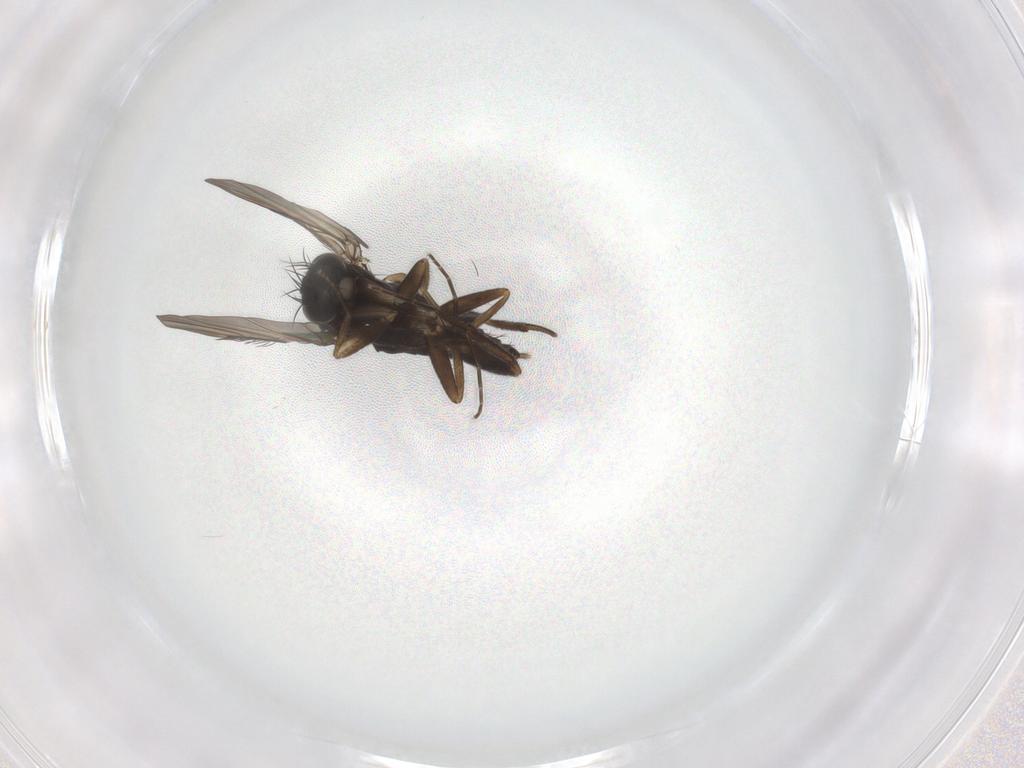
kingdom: Animalia
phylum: Arthropoda
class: Insecta
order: Diptera
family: Phoridae
